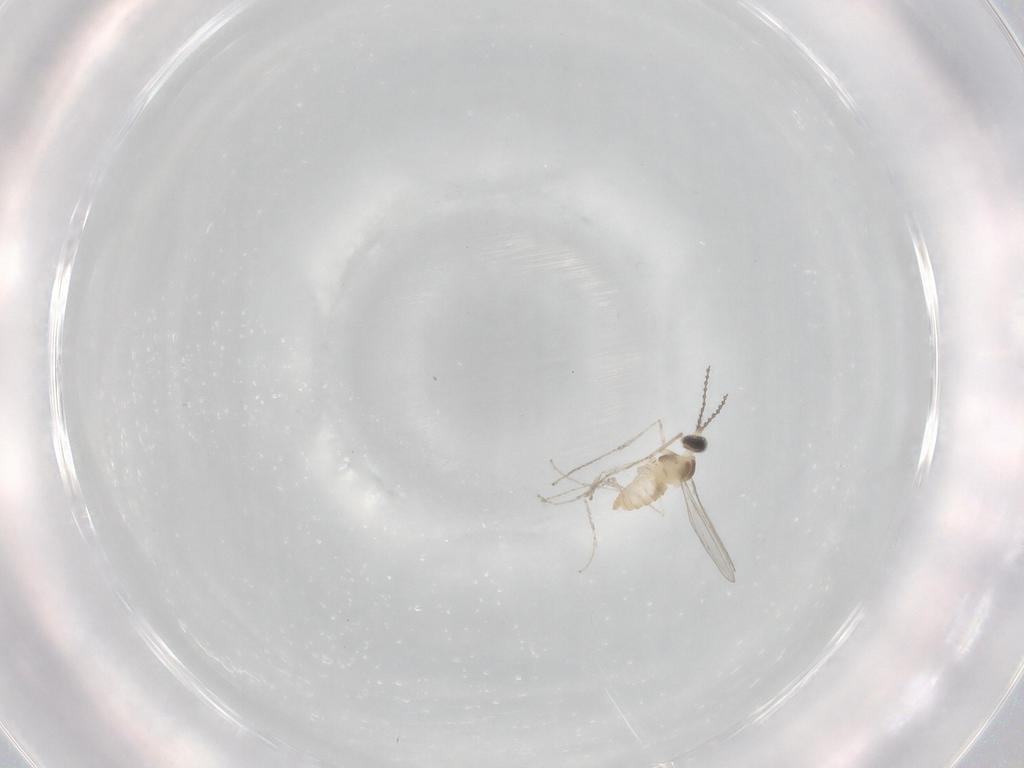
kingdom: Animalia
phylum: Arthropoda
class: Insecta
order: Diptera
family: Cecidomyiidae
